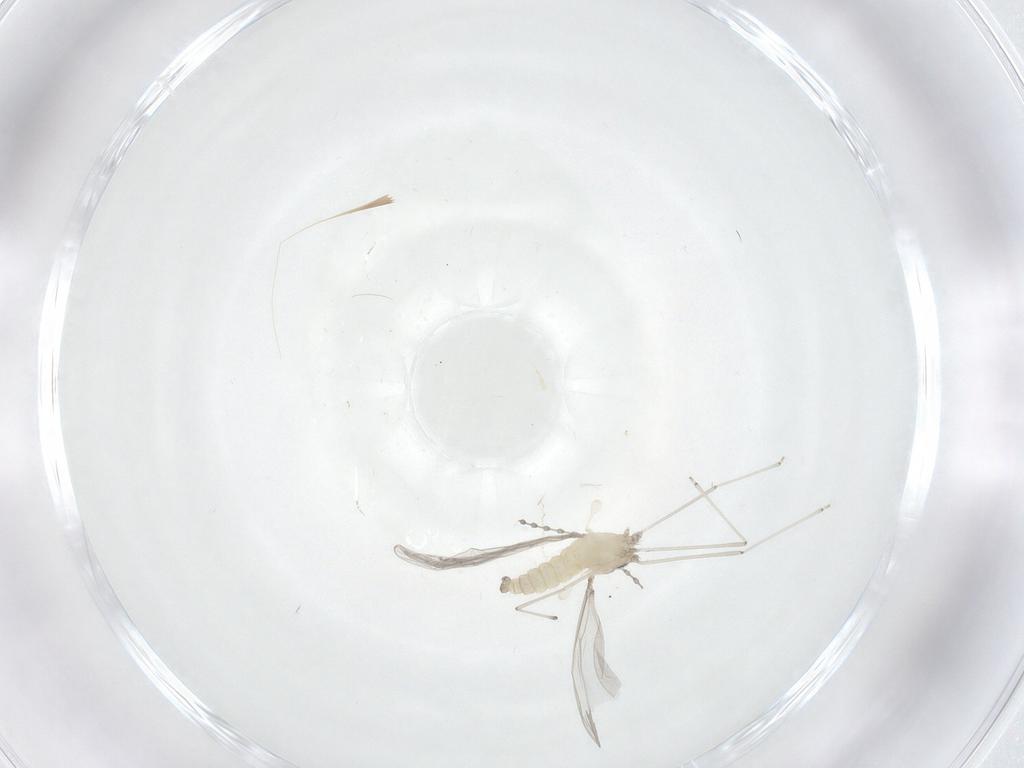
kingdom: Animalia
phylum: Arthropoda
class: Insecta
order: Diptera
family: Cecidomyiidae
